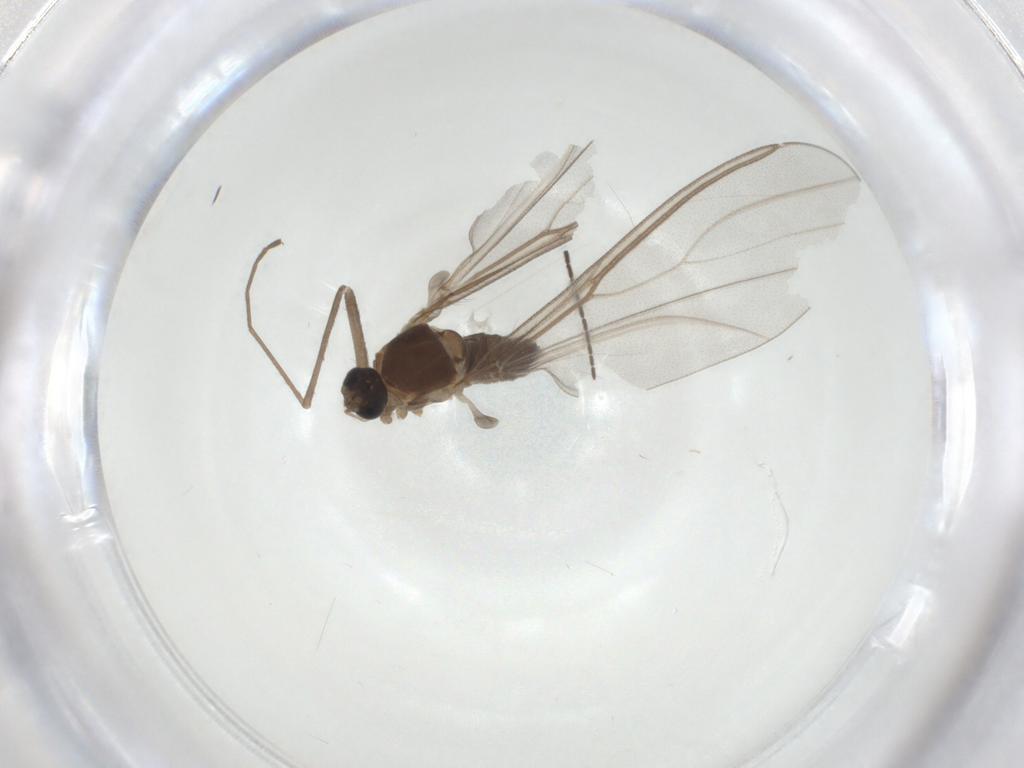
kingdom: Animalia
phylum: Arthropoda
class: Insecta
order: Diptera
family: Cecidomyiidae
